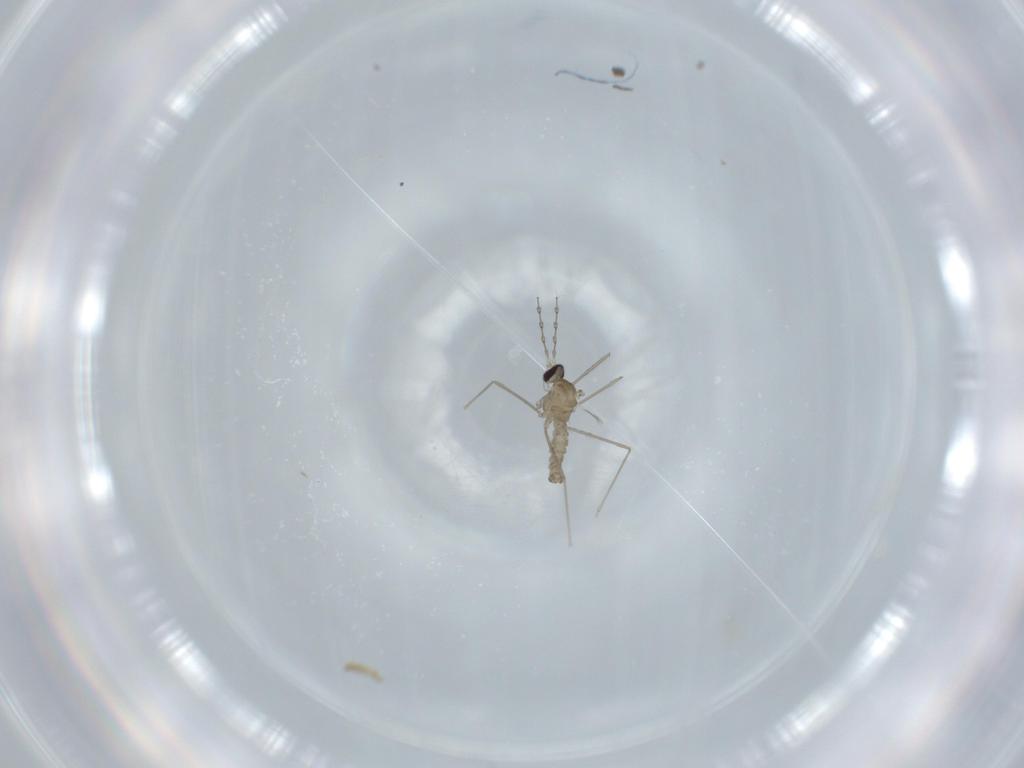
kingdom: Animalia
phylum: Arthropoda
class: Insecta
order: Diptera
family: Cecidomyiidae
